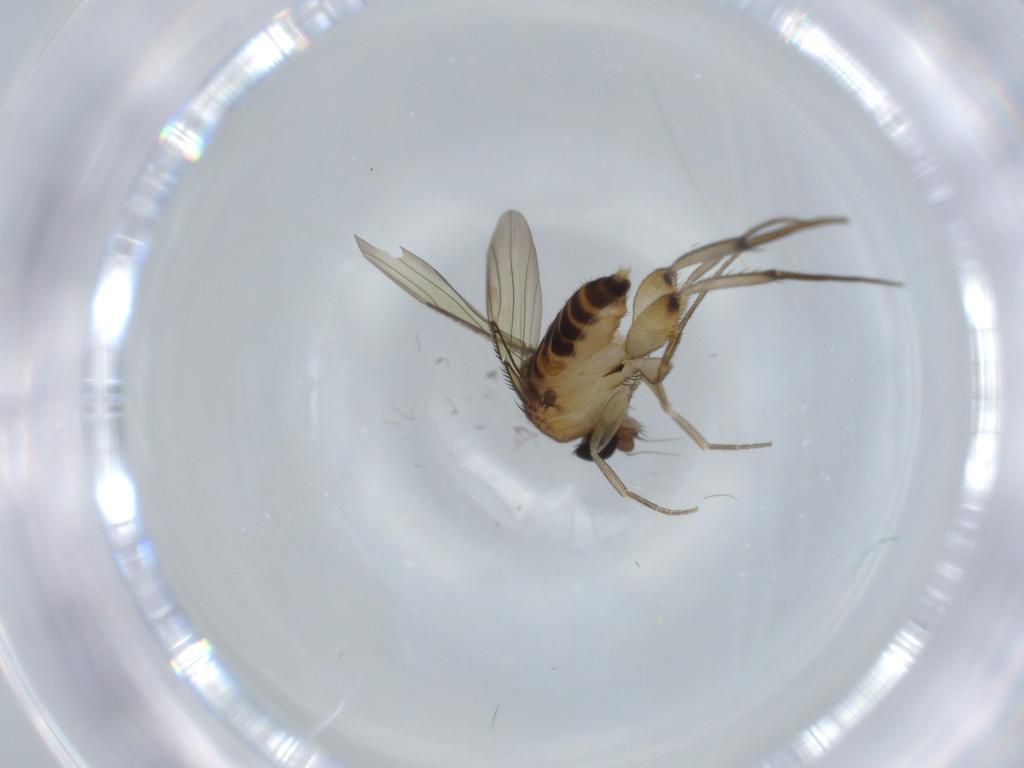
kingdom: Animalia
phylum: Arthropoda
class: Insecta
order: Diptera
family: Phoridae
